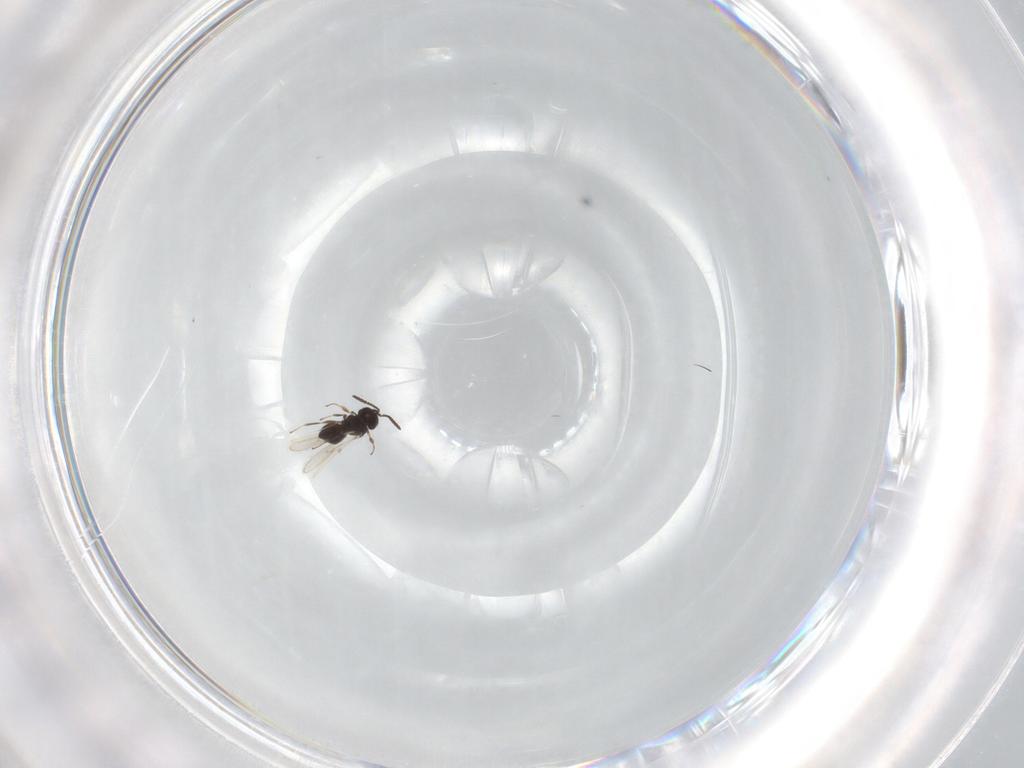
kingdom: Animalia
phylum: Arthropoda
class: Insecta
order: Hymenoptera
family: Scelionidae
